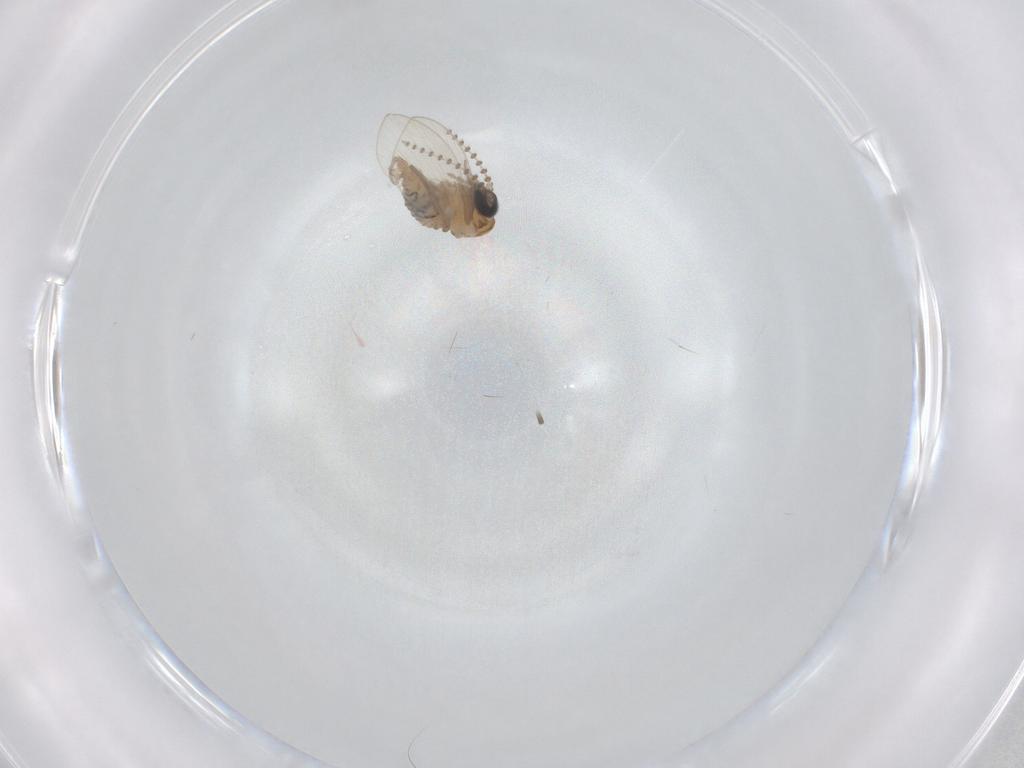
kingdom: Animalia
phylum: Arthropoda
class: Insecta
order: Diptera
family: Psychodidae
